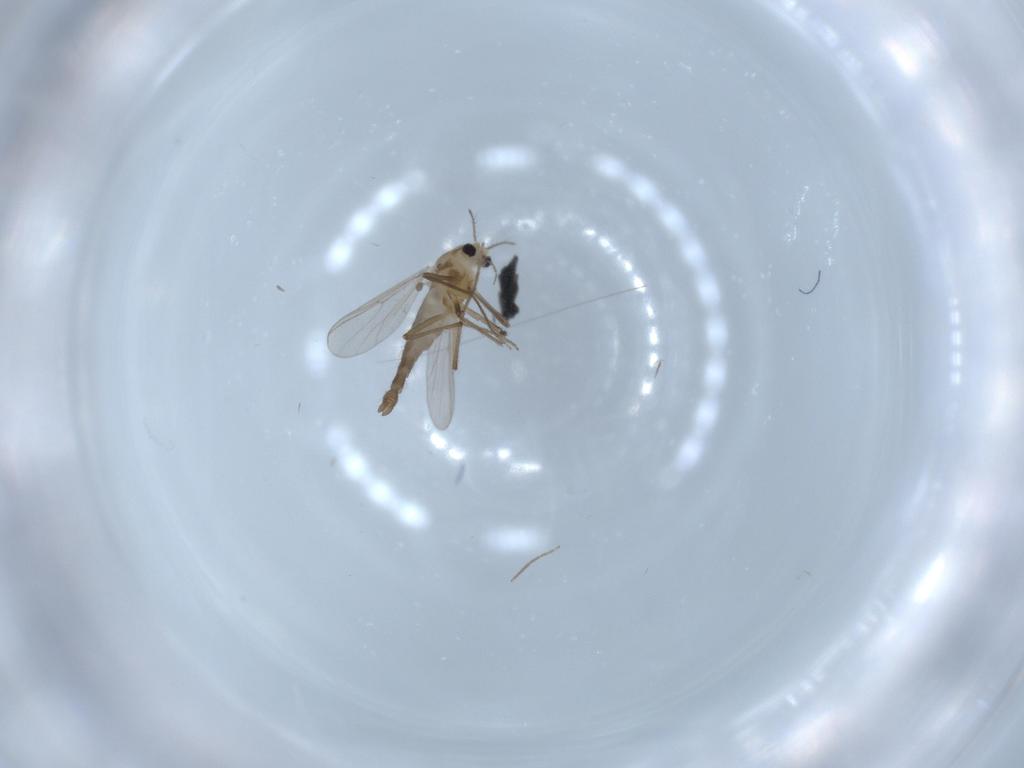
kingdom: Animalia
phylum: Arthropoda
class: Insecta
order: Diptera
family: Chironomidae
